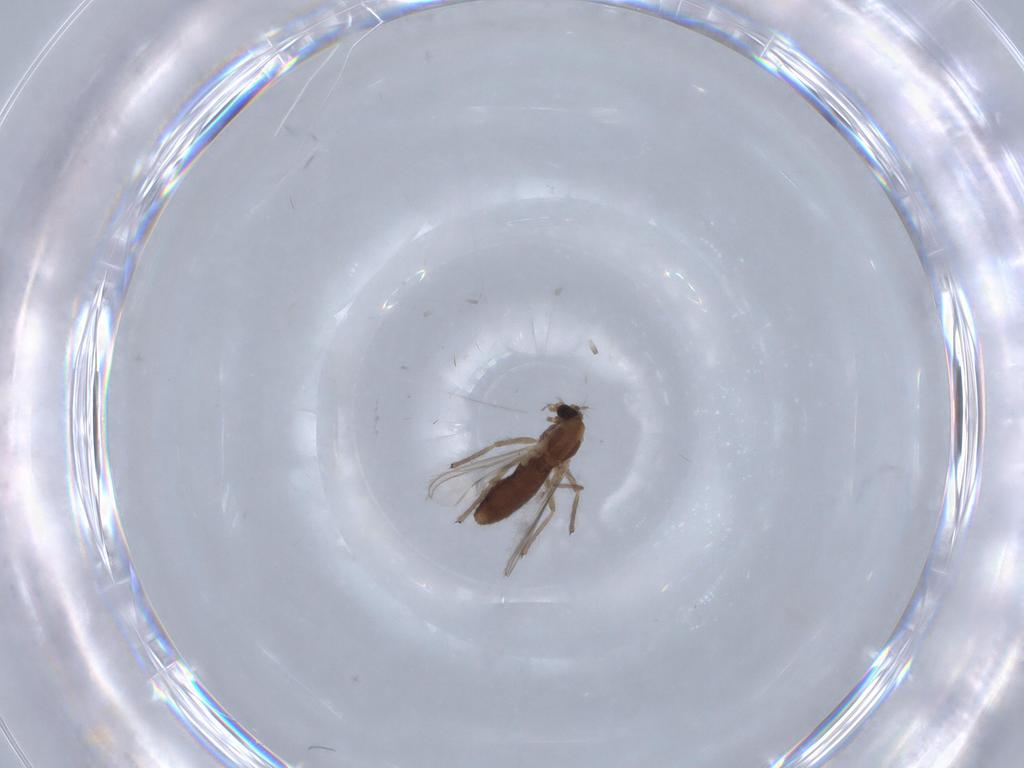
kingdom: Animalia
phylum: Arthropoda
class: Insecta
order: Diptera
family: Chironomidae
